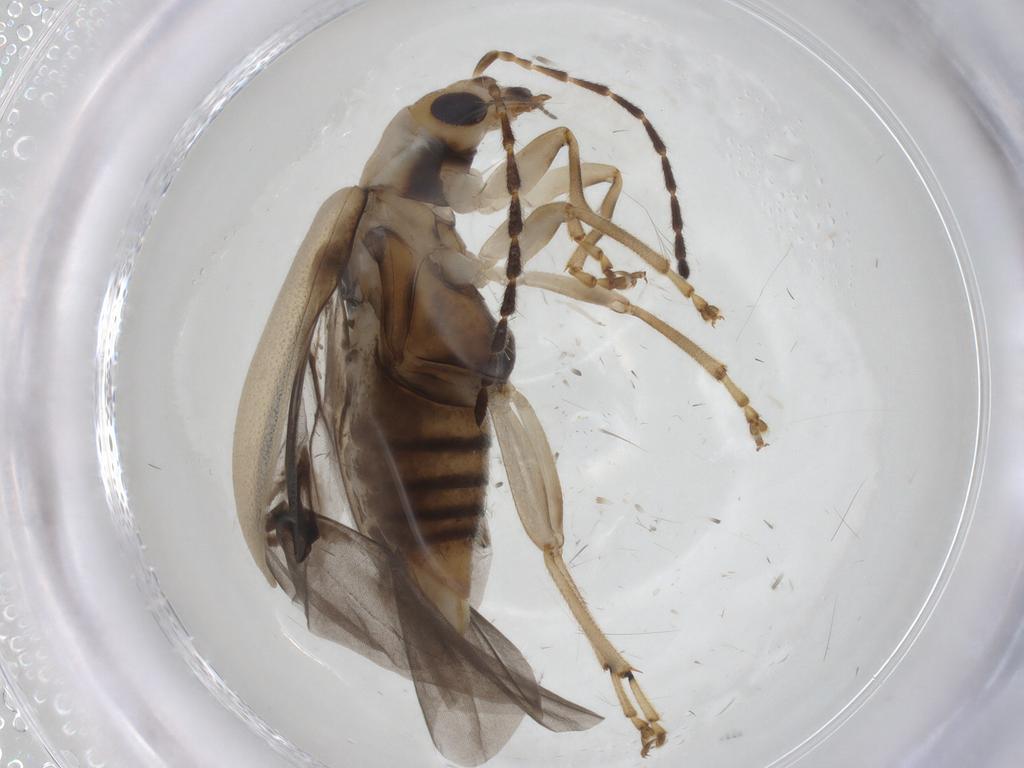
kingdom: Animalia
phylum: Arthropoda
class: Insecta
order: Coleoptera
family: Chrysomelidae
